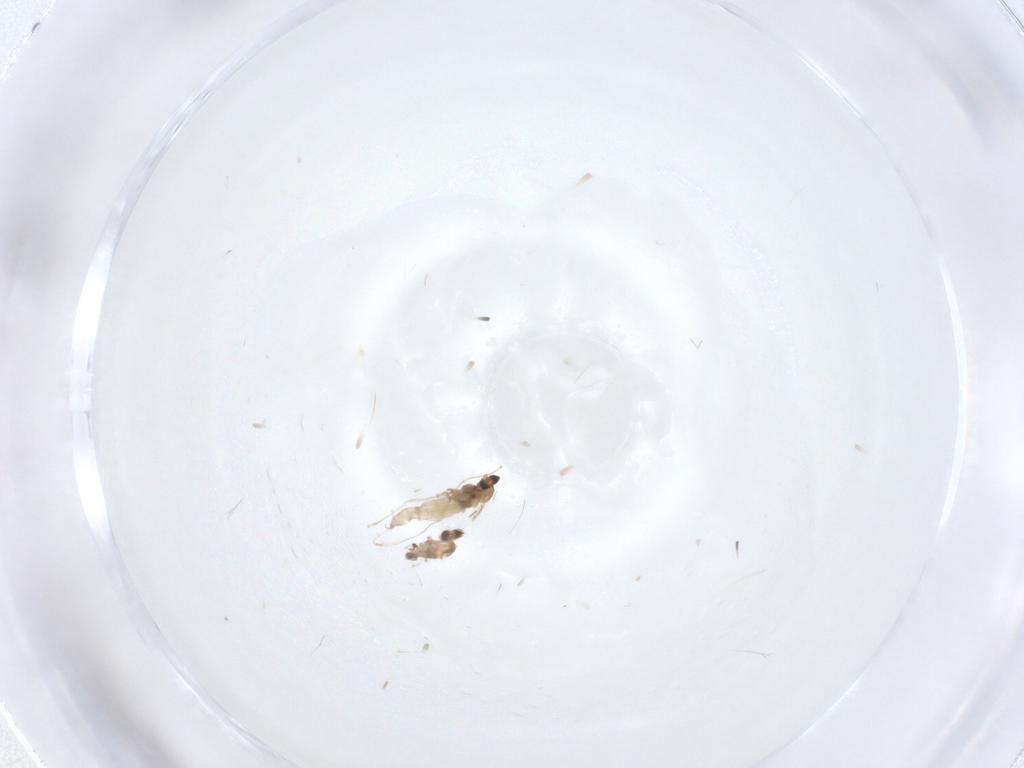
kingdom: Animalia
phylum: Arthropoda
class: Insecta
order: Diptera
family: Cecidomyiidae
